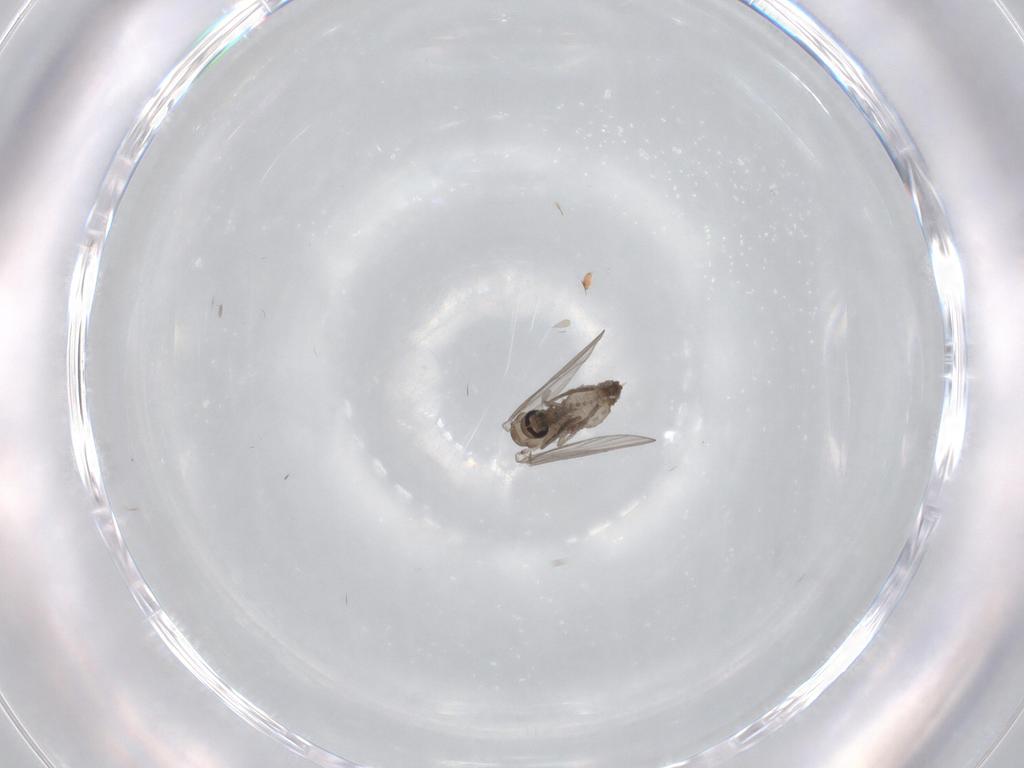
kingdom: Animalia
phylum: Arthropoda
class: Insecta
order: Diptera
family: Psychodidae
